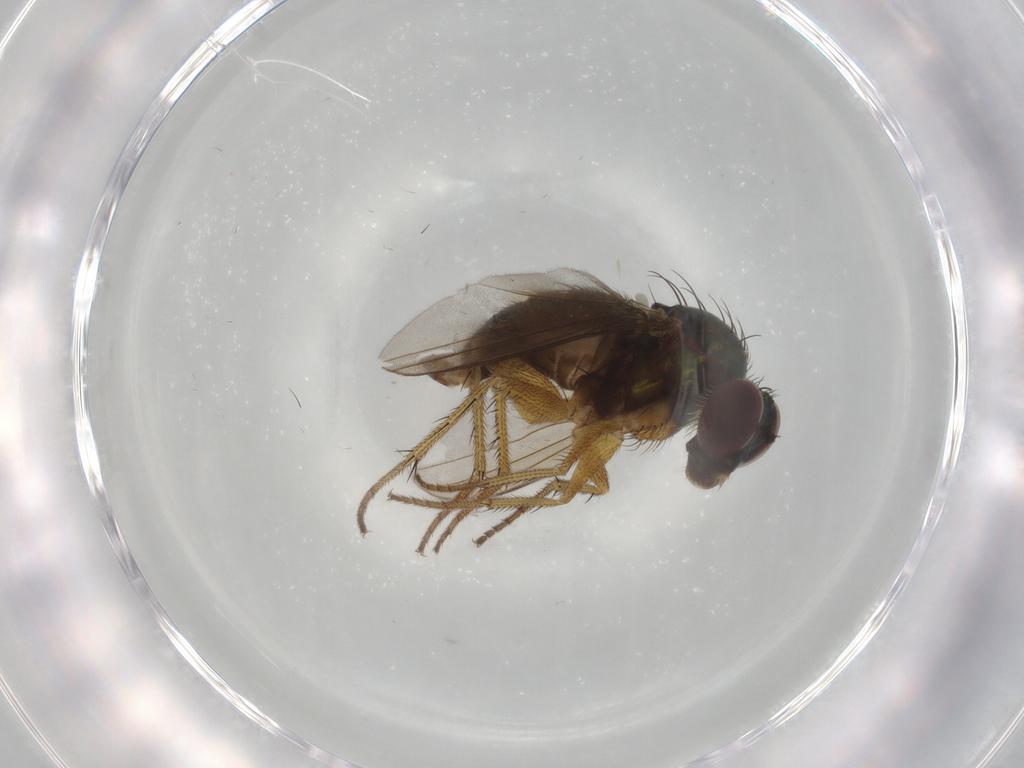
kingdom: Animalia
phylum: Arthropoda
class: Insecta
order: Diptera
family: Dolichopodidae
